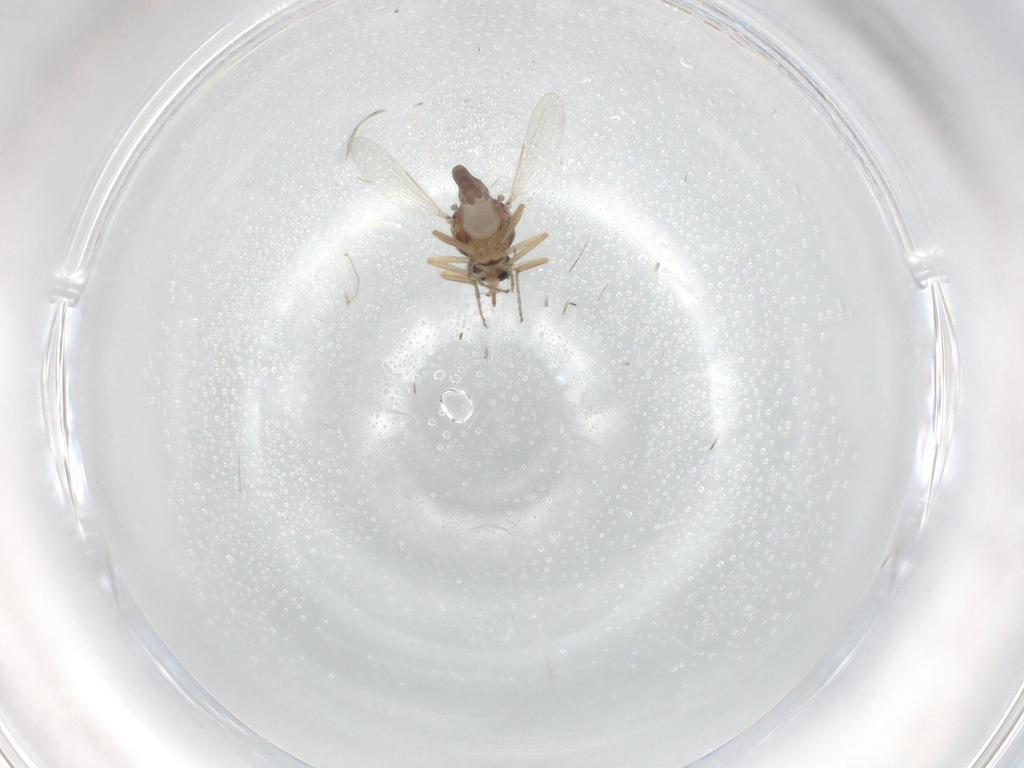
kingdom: Animalia
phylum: Arthropoda
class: Insecta
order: Diptera
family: Ceratopogonidae
